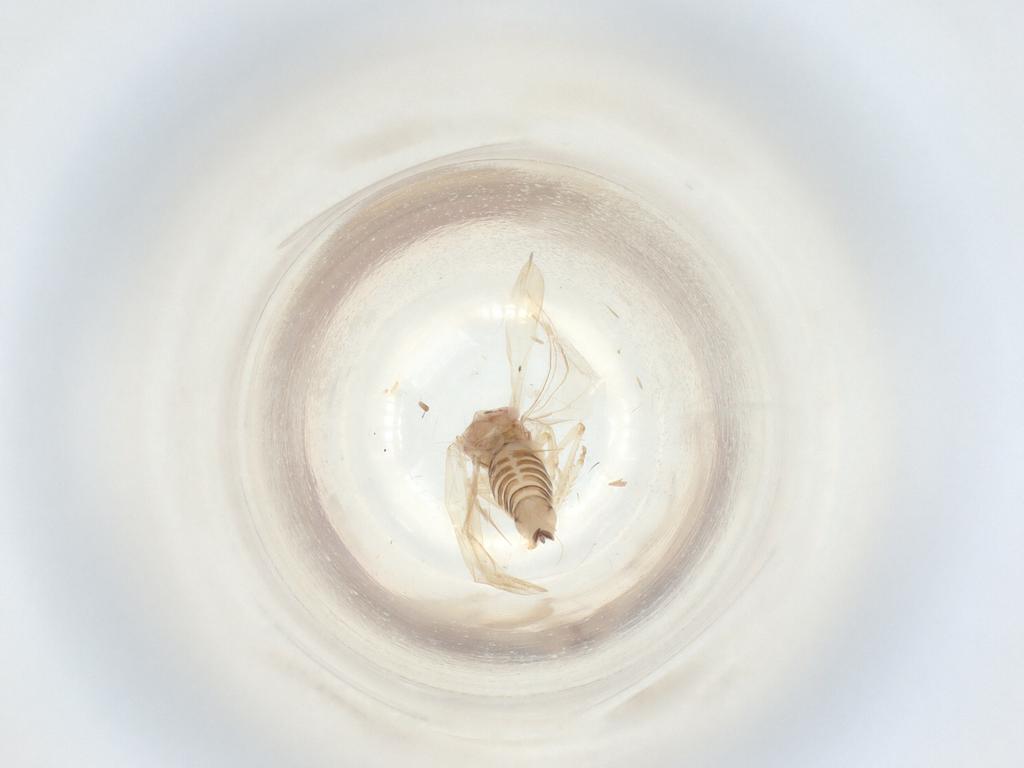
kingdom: Animalia
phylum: Arthropoda
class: Insecta
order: Hemiptera
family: Cicadellidae
